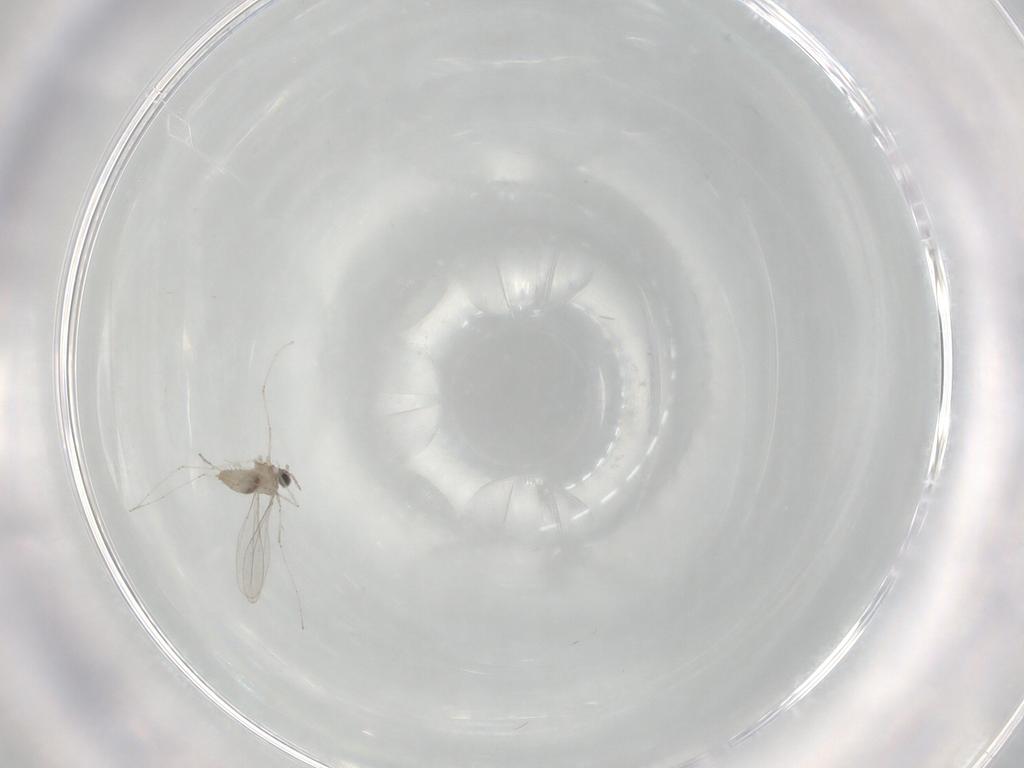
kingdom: Animalia
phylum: Arthropoda
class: Insecta
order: Diptera
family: Cecidomyiidae
